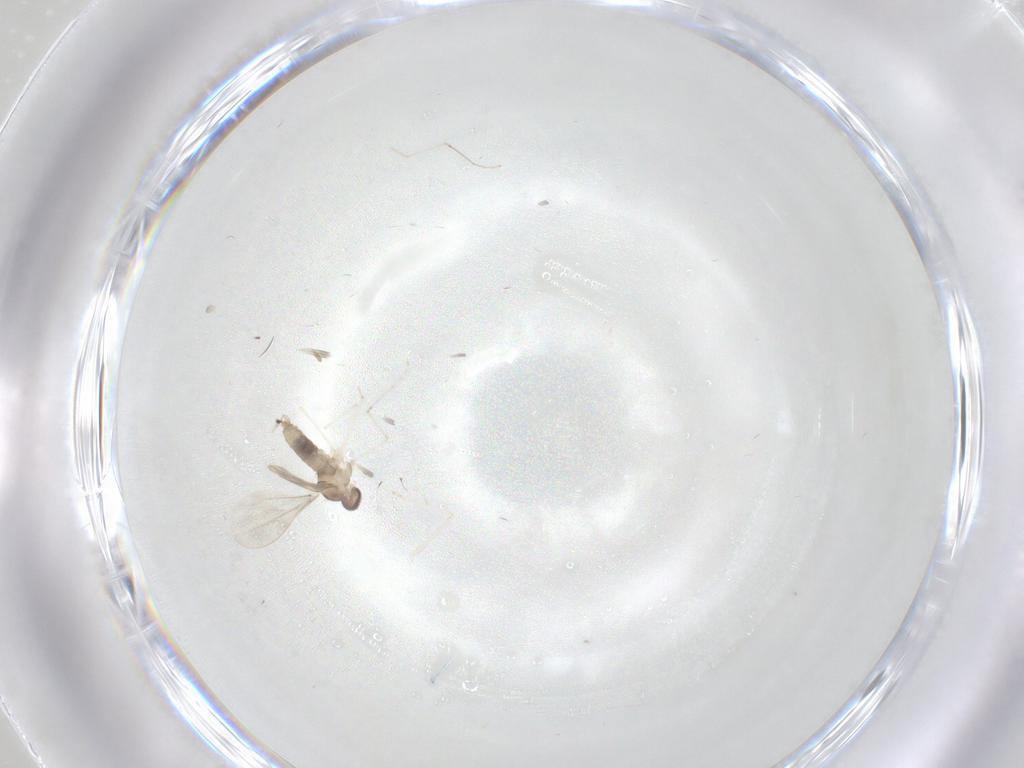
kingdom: Animalia
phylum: Arthropoda
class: Insecta
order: Diptera
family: Cecidomyiidae
